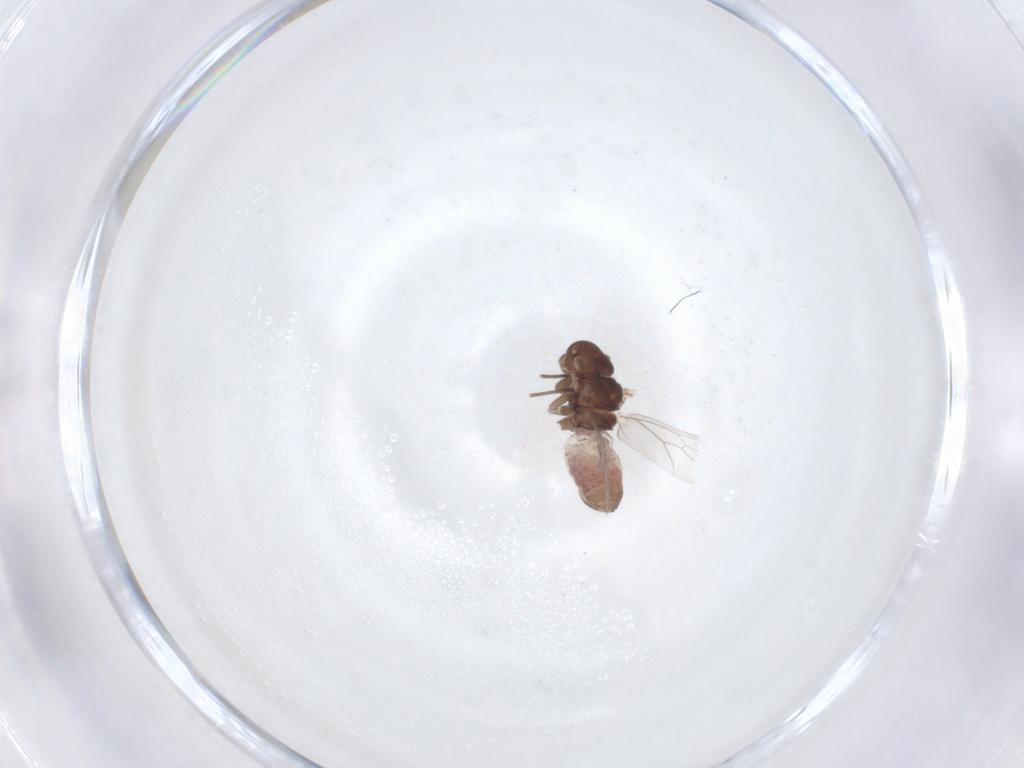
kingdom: Animalia
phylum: Arthropoda
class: Insecta
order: Psocodea
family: Ectopsocidae
